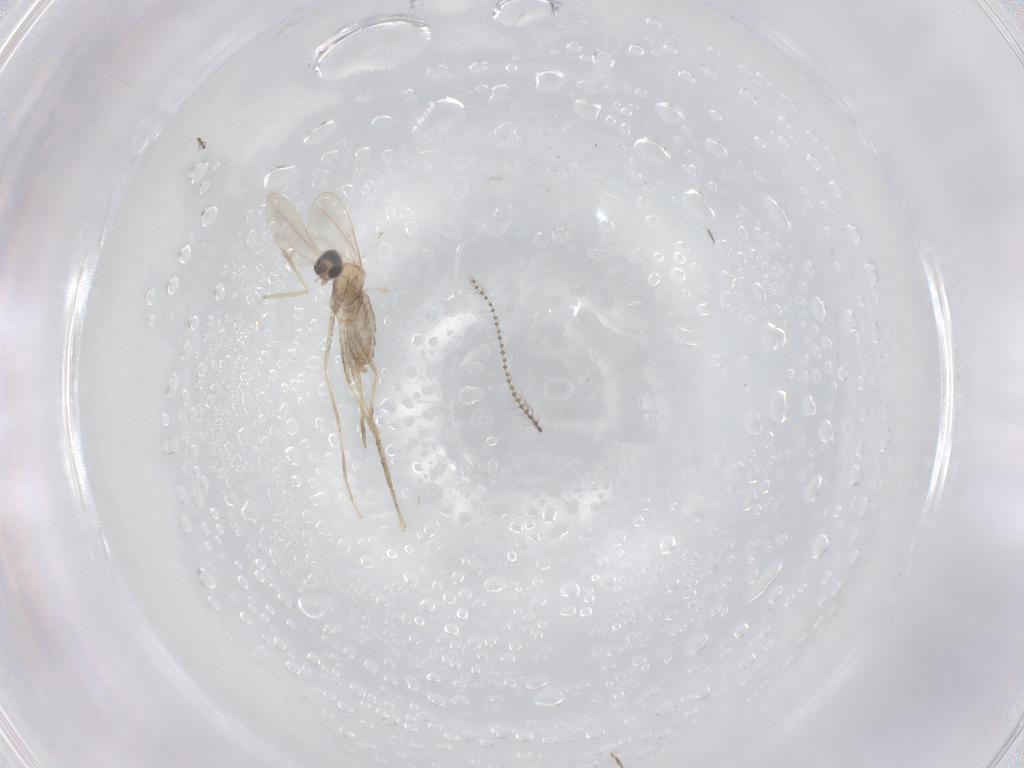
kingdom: Animalia
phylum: Arthropoda
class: Insecta
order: Diptera
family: Cecidomyiidae
